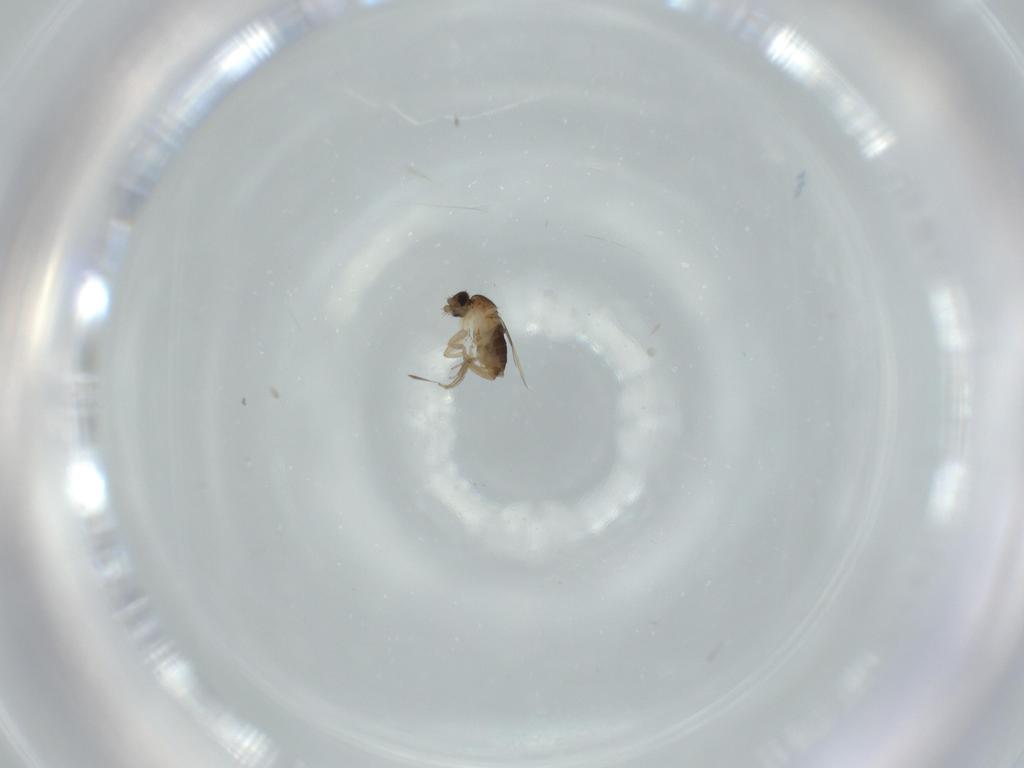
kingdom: Animalia
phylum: Arthropoda
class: Insecta
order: Diptera
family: Phoridae
